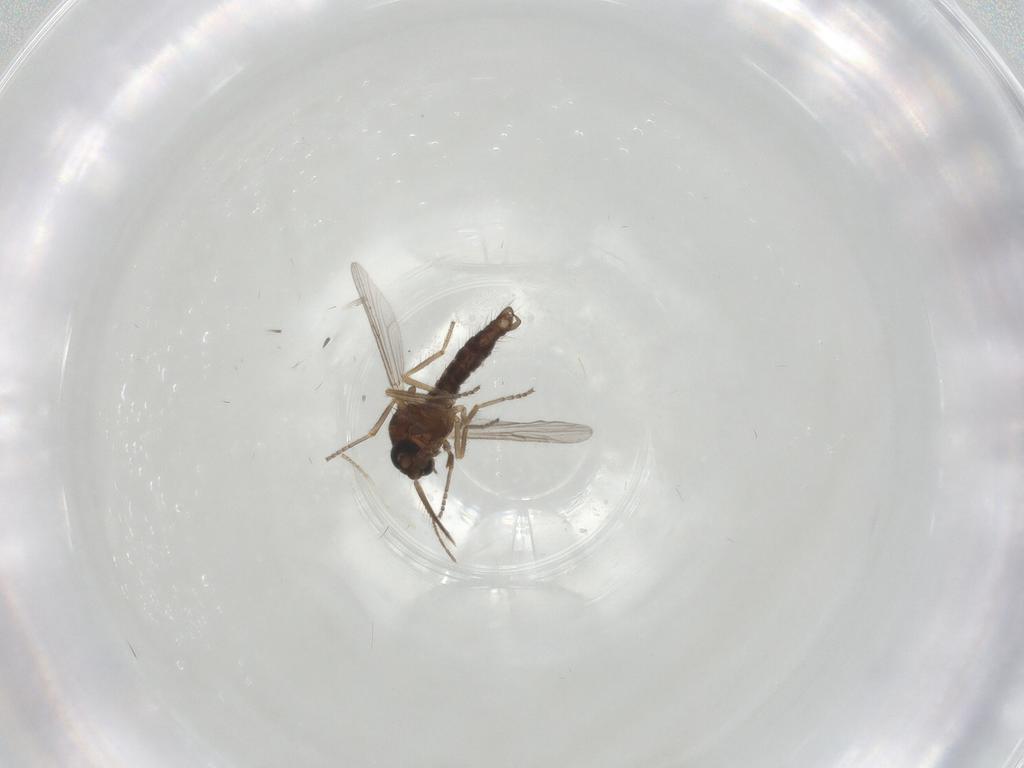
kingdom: Animalia
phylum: Arthropoda
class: Insecta
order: Diptera
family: Ceratopogonidae
